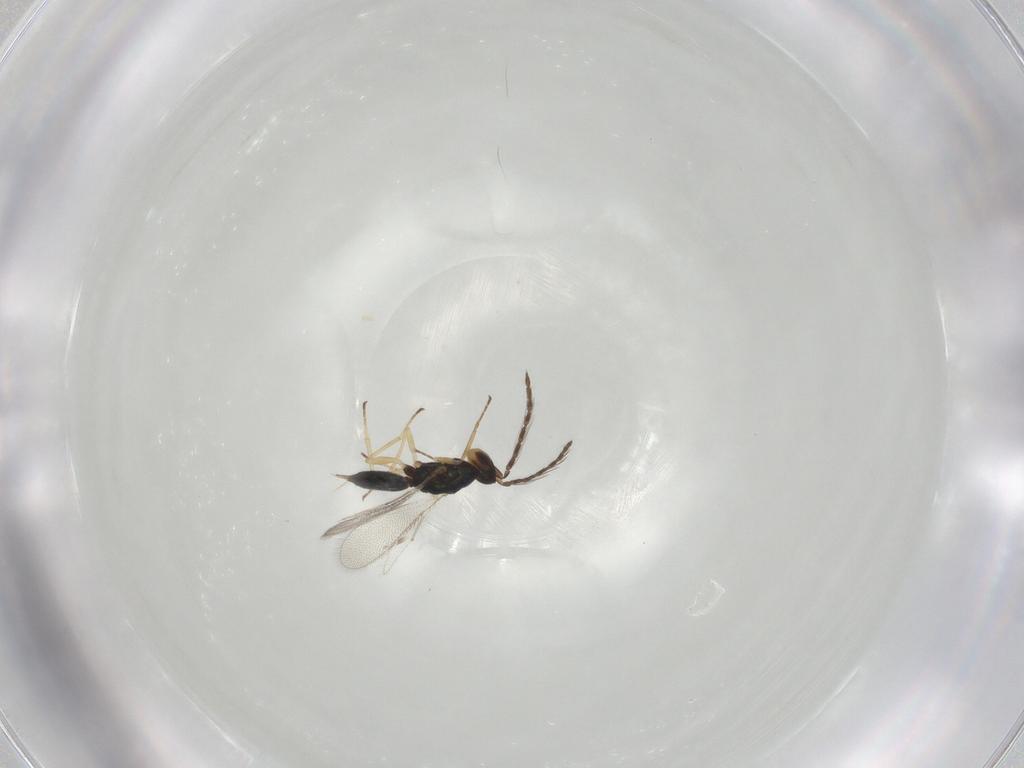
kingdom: Animalia
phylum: Arthropoda
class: Insecta
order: Hymenoptera
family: Eulophidae
